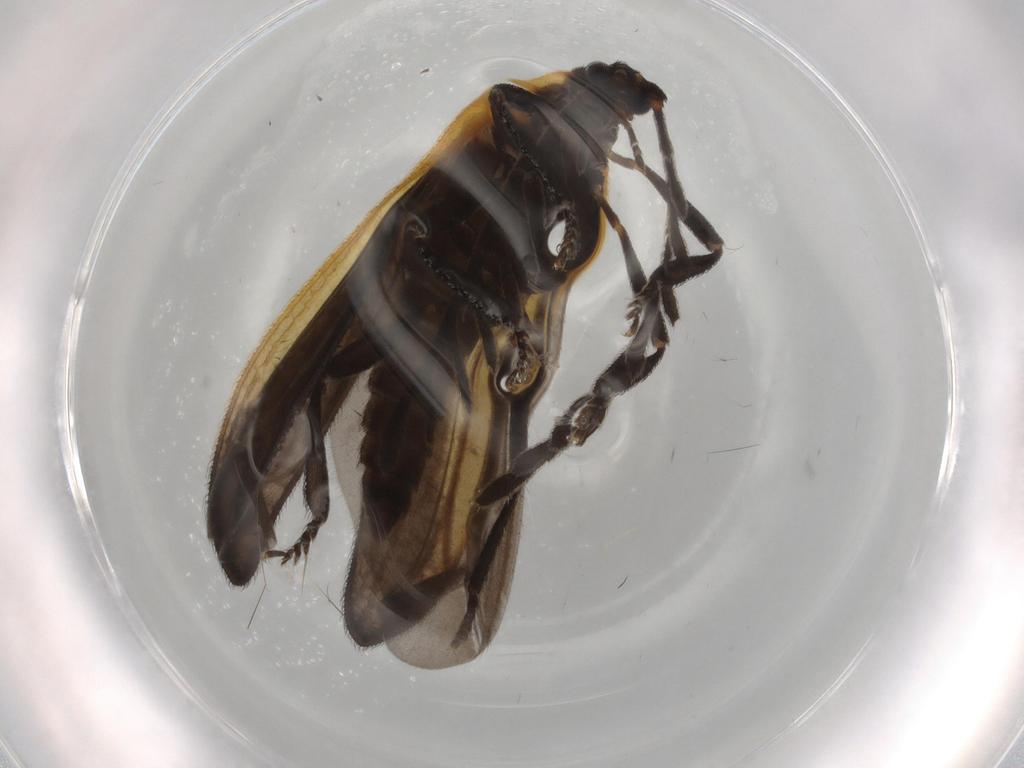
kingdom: Animalia
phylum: Arthropoda
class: Insecta
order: Coleoptera
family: Lycidae
